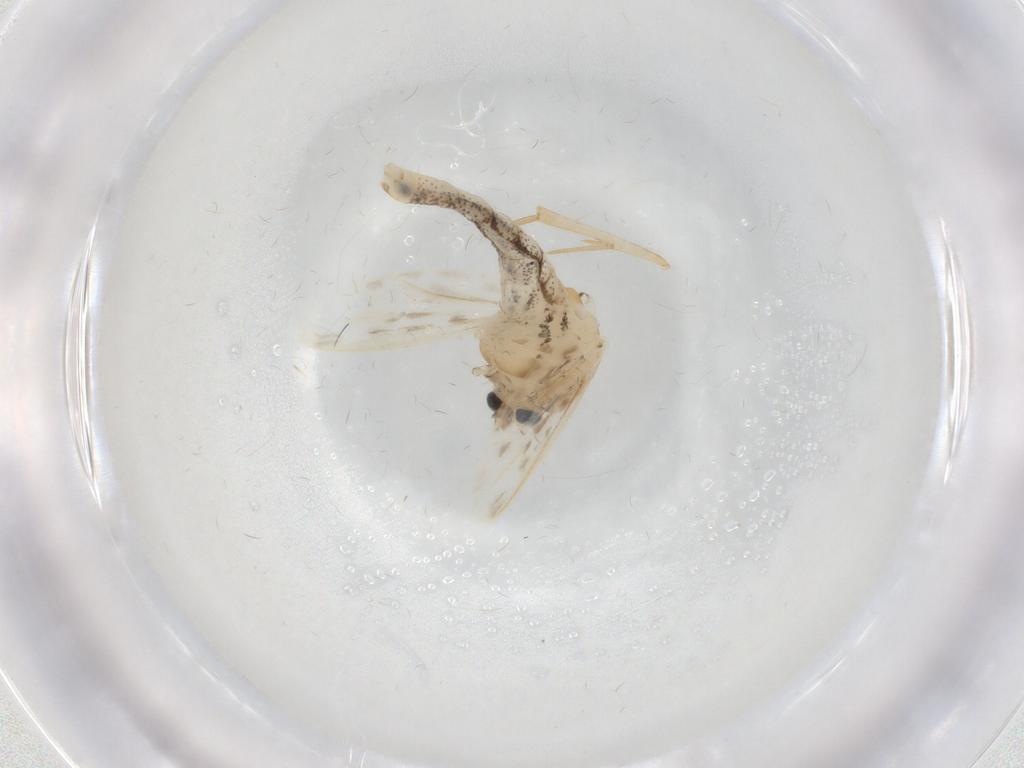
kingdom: Animalia
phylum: Arthropoda
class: Insecta
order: Diptera
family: Chaoboridae
